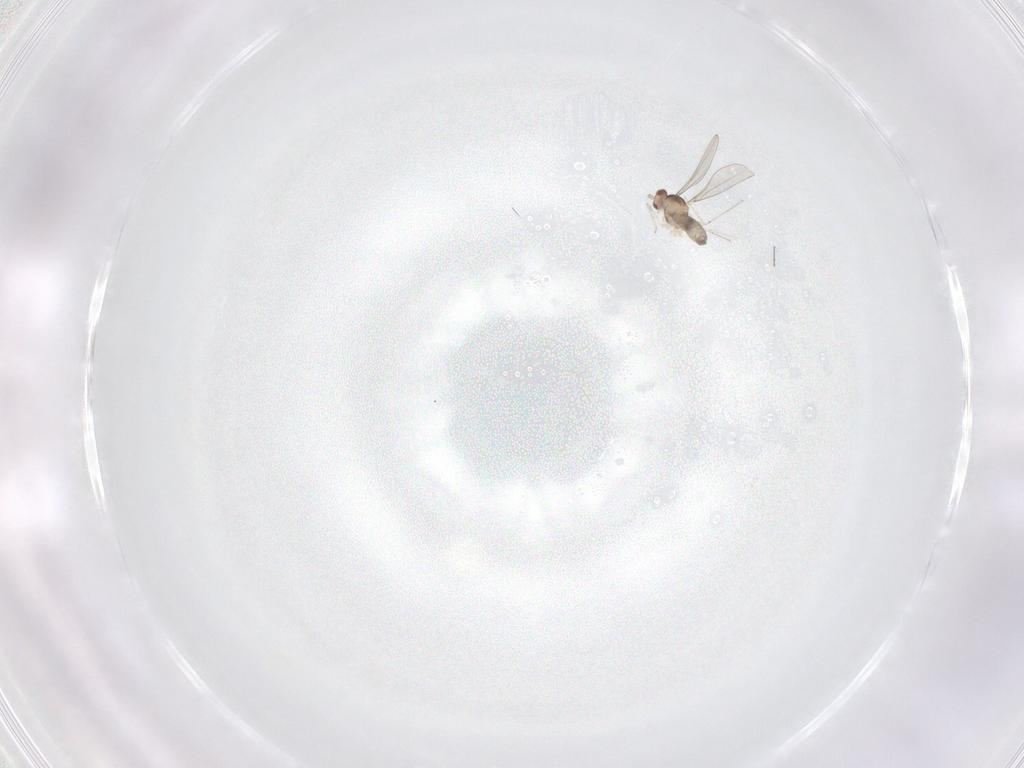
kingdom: Animalia
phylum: Arthropoda
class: Insecta
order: Diptera
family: Cecidomyiidae
